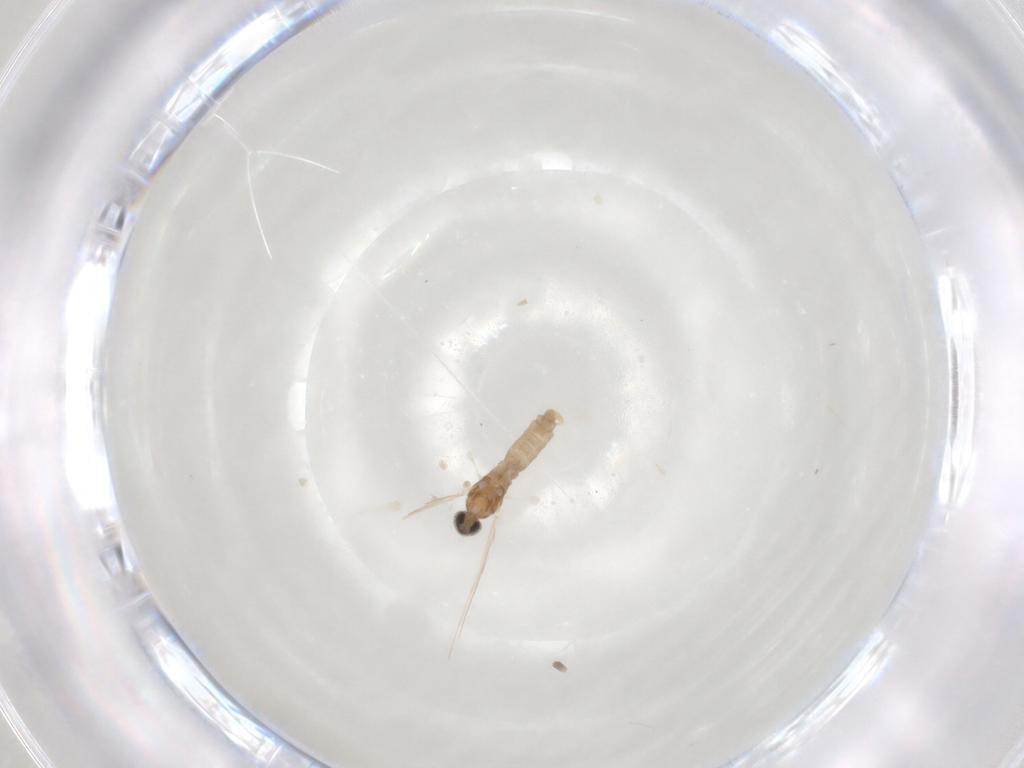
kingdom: Animalia
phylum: Arthropoda
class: Insecta
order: Diptera
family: Cecidomyiidae
